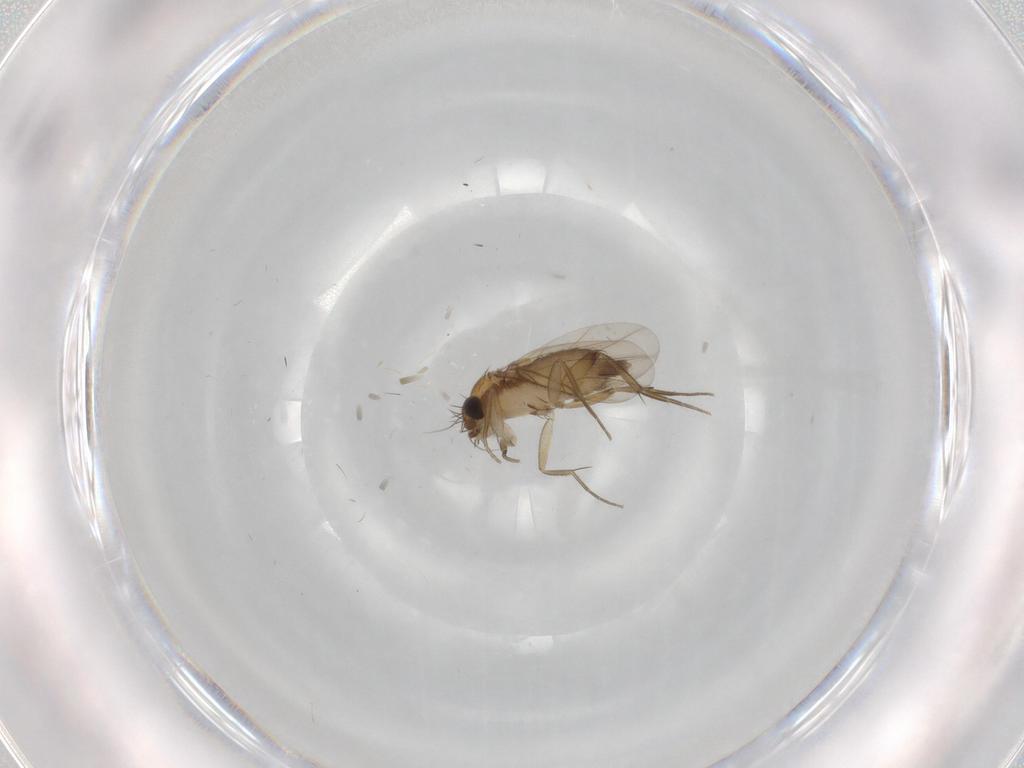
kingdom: Animalia
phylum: Arthropoda
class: Insecta
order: Diptera
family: Phoridae
